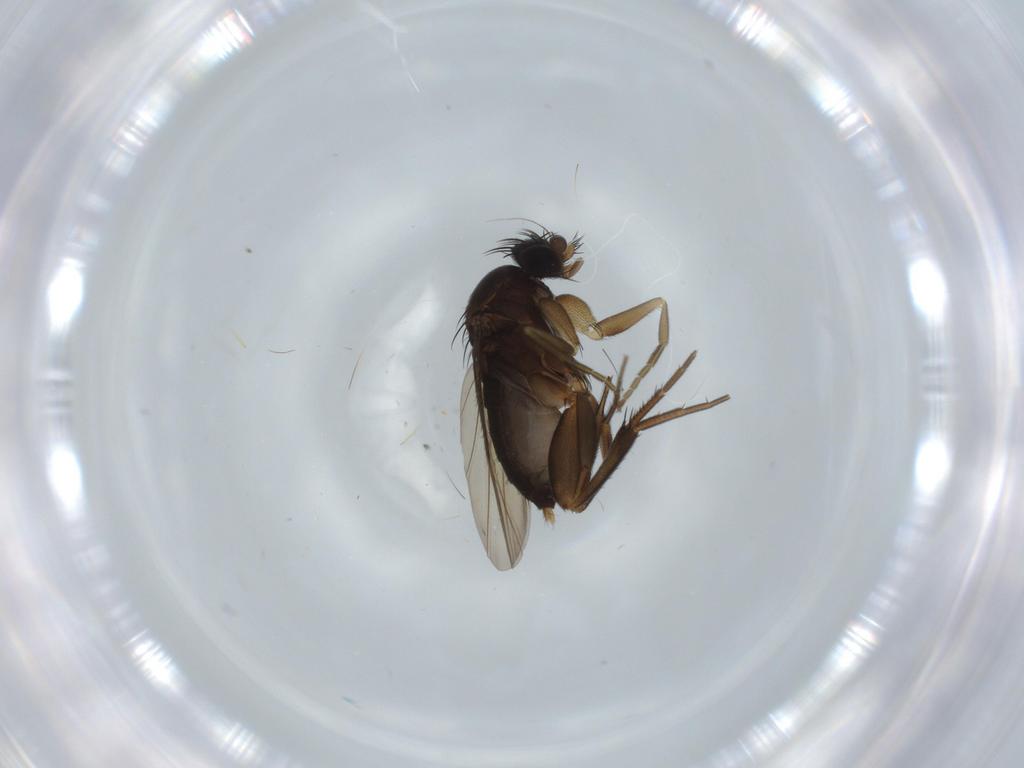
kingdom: Animalia
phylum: Arthropoda
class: Insecta
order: Diptera
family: Phoridae
